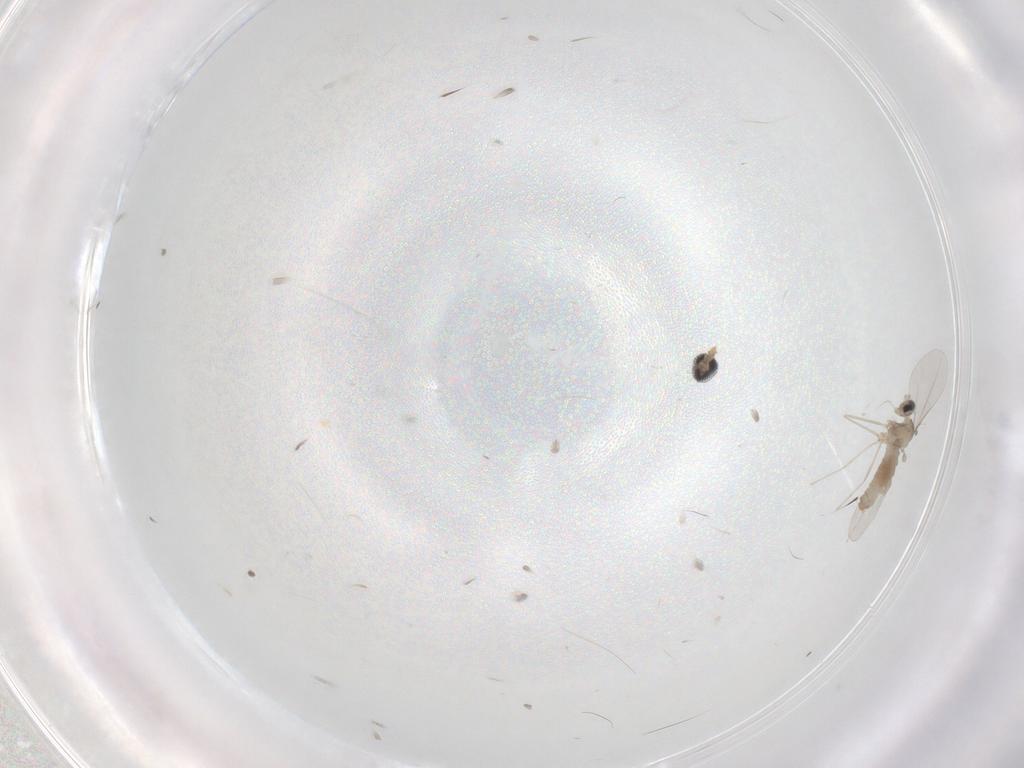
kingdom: Animalia
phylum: Arthropoda
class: Insecta
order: Diptera
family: Cecidomyiidae
